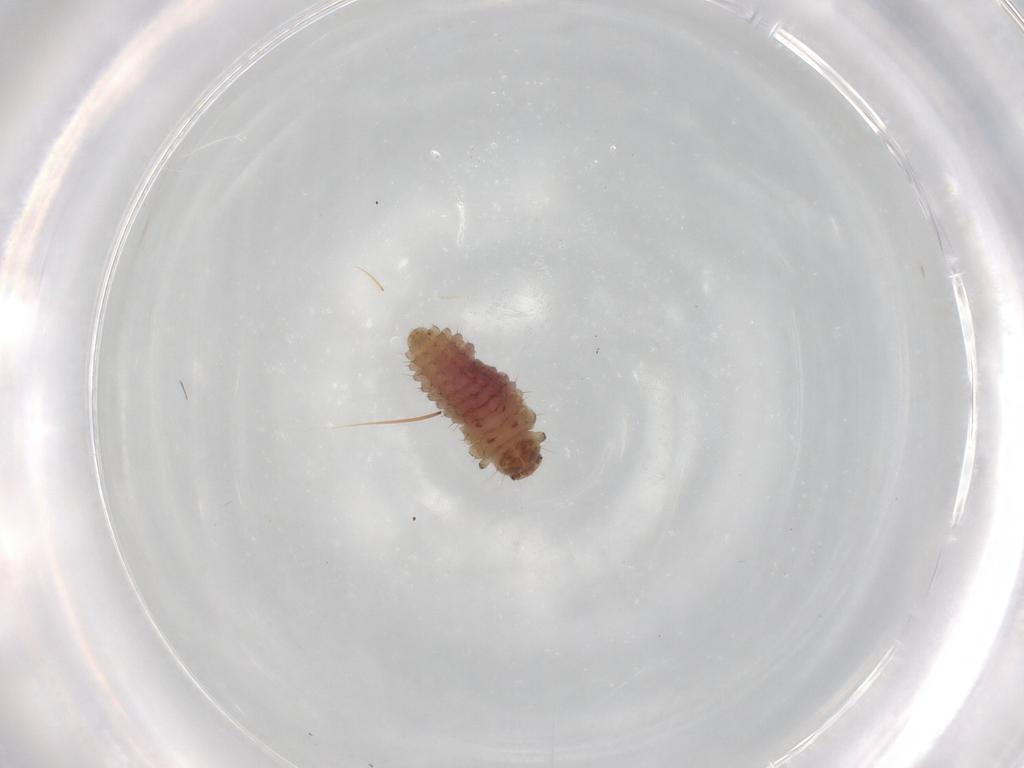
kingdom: Animalia
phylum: Arthropoda
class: Insecta
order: Coleoptera
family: Coccinellidae
